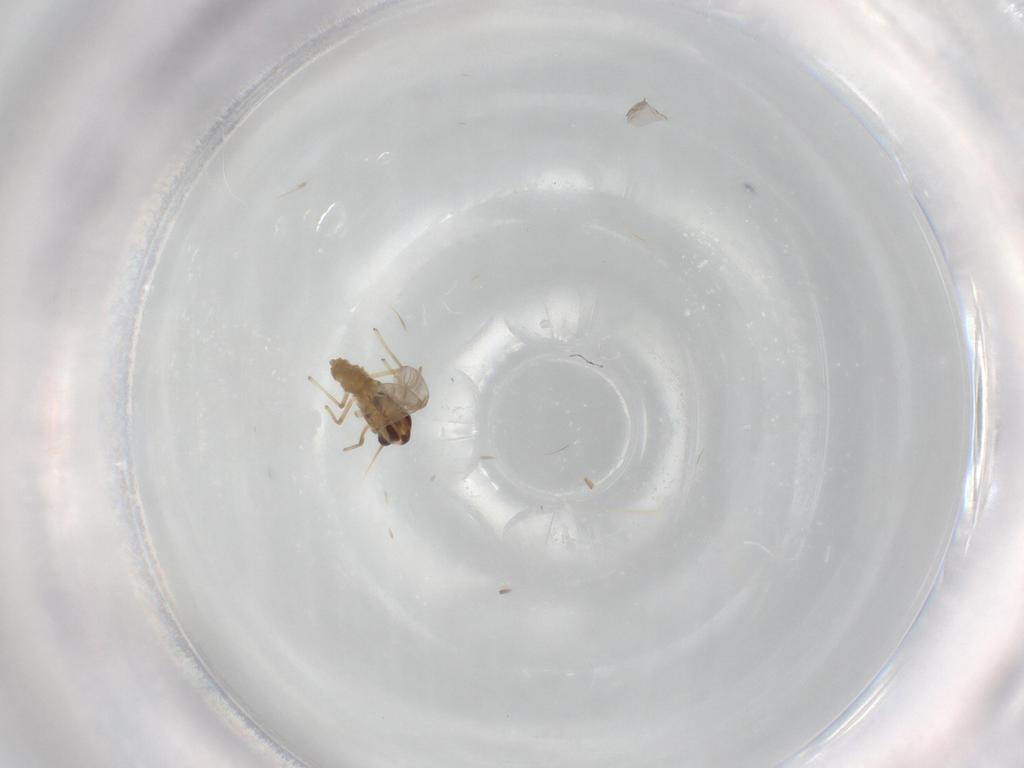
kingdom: Animalia
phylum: Arthropoda
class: Insecta
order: Diptera
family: Chironomidae
